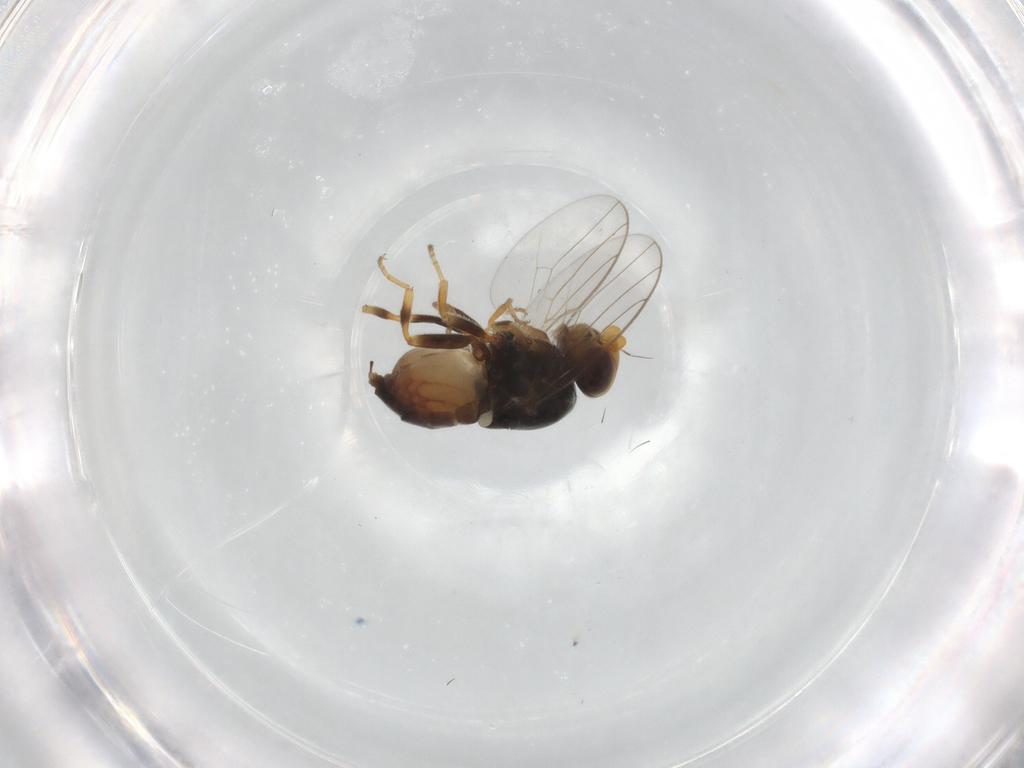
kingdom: Animalia
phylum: Arthropoda
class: Insecta
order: Diptera
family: Chloropidae
